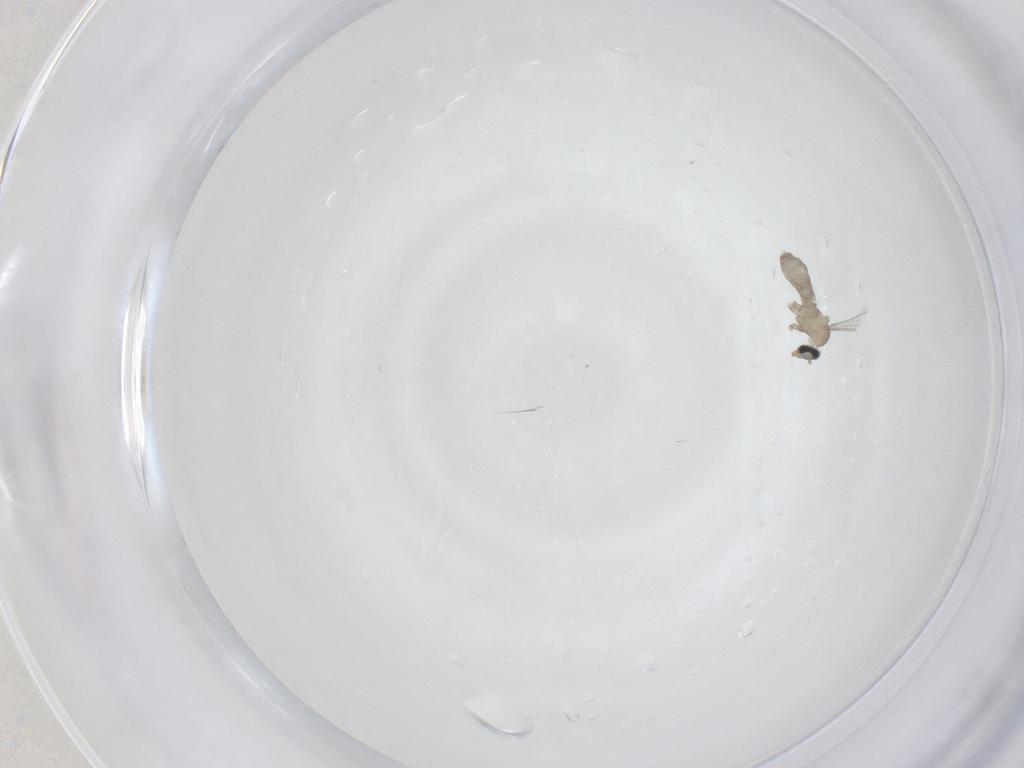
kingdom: Animalia
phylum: Arthropoda
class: Insecta
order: Diptera
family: Cecidomyiidae
